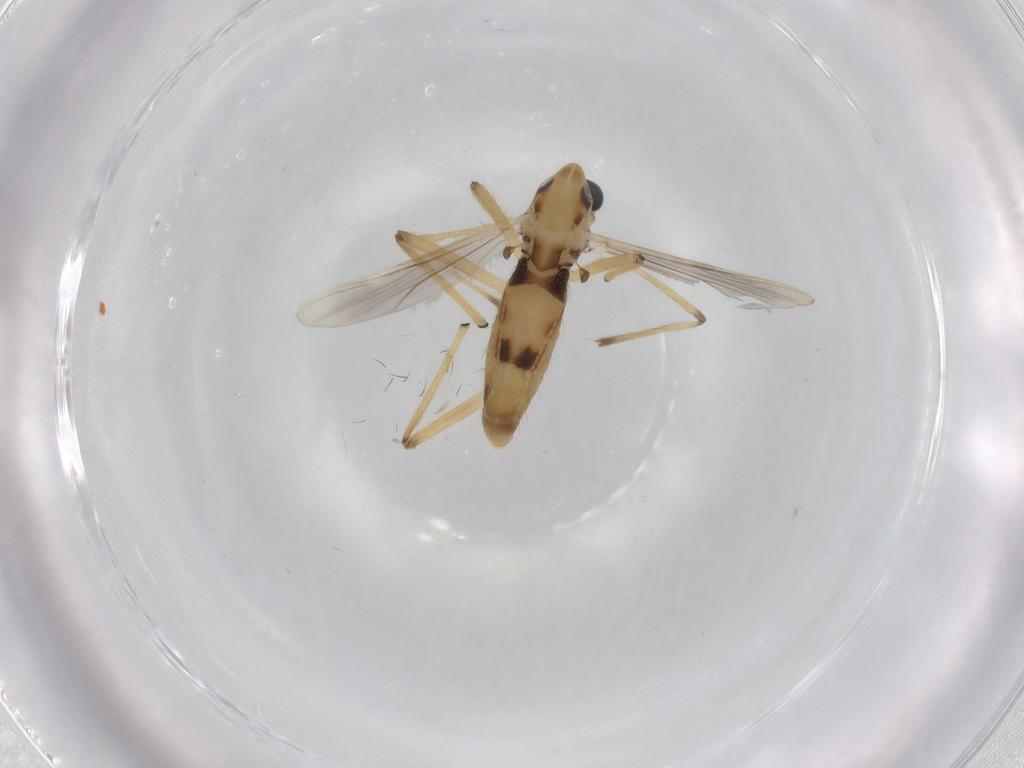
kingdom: Animalia
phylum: Arthropoda
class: Insecta
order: Diptera
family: Chironomidae
